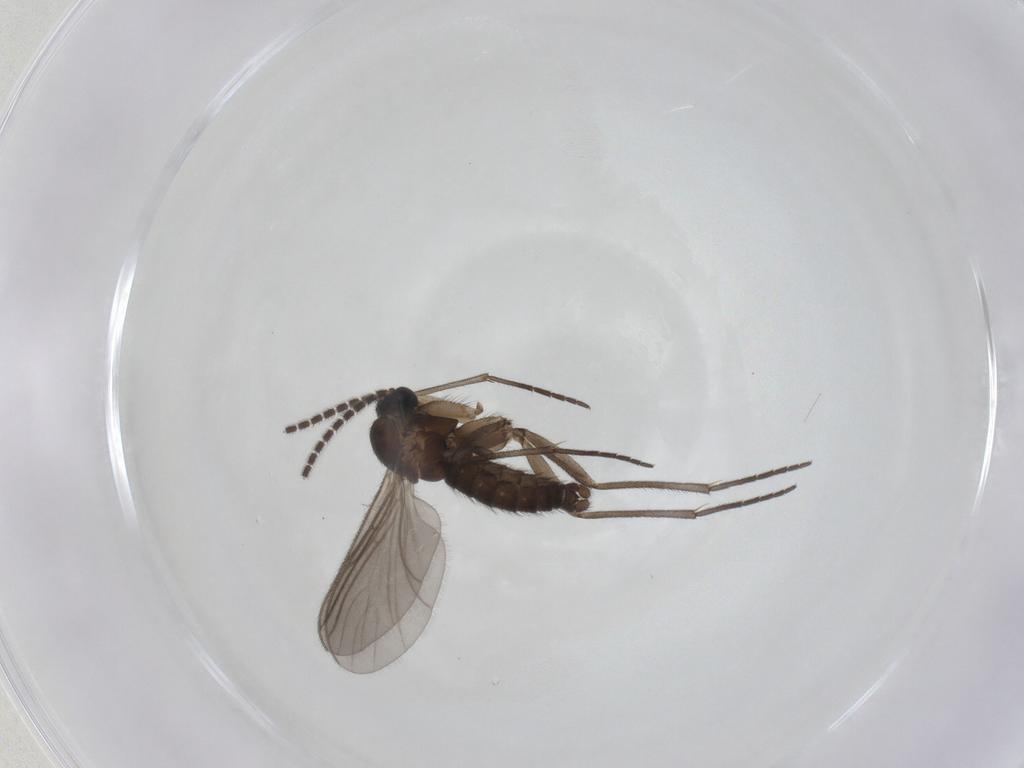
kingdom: Animalia
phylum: Arthropoda
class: Insecta
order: Diptera
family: Sciaridae
